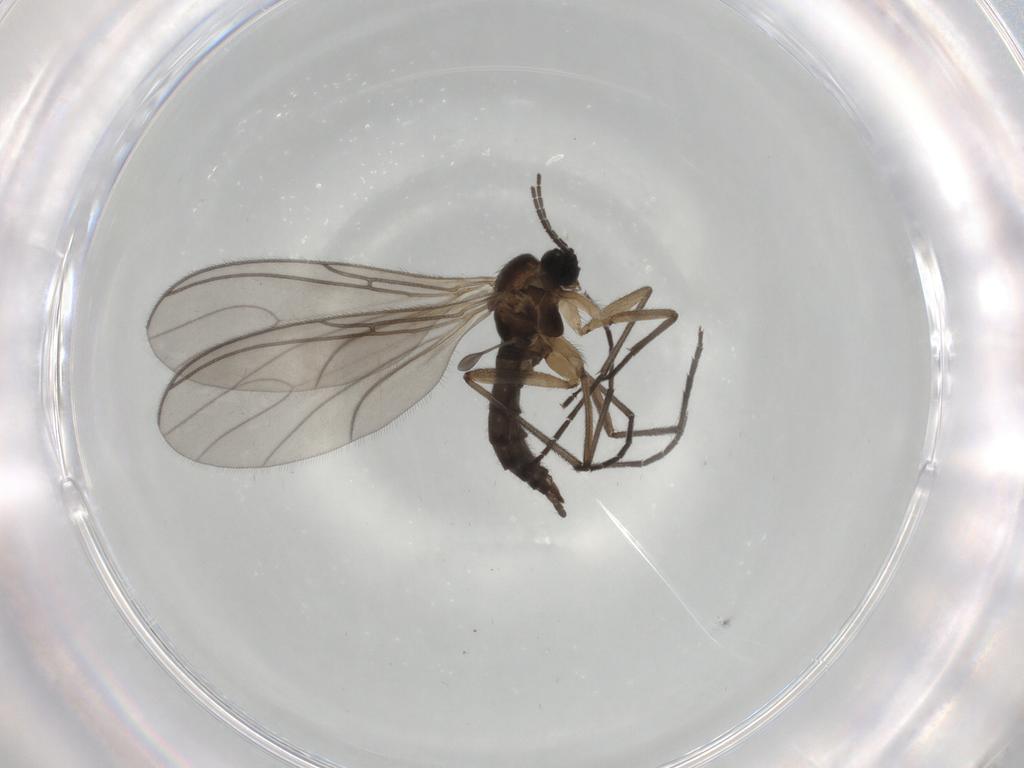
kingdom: Animalia
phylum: Arthropoda
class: Insecta
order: Diptera
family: Sciaridae
